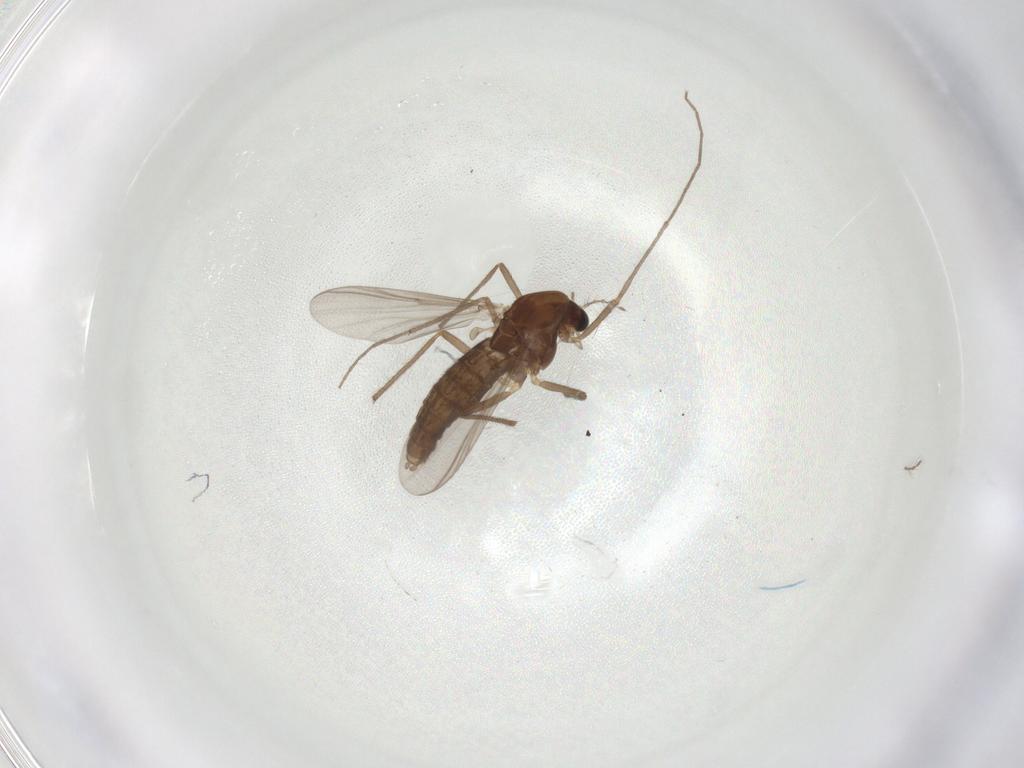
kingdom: Animalia
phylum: Arthropoda
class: Insecta
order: Diptera
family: Chironomidae
